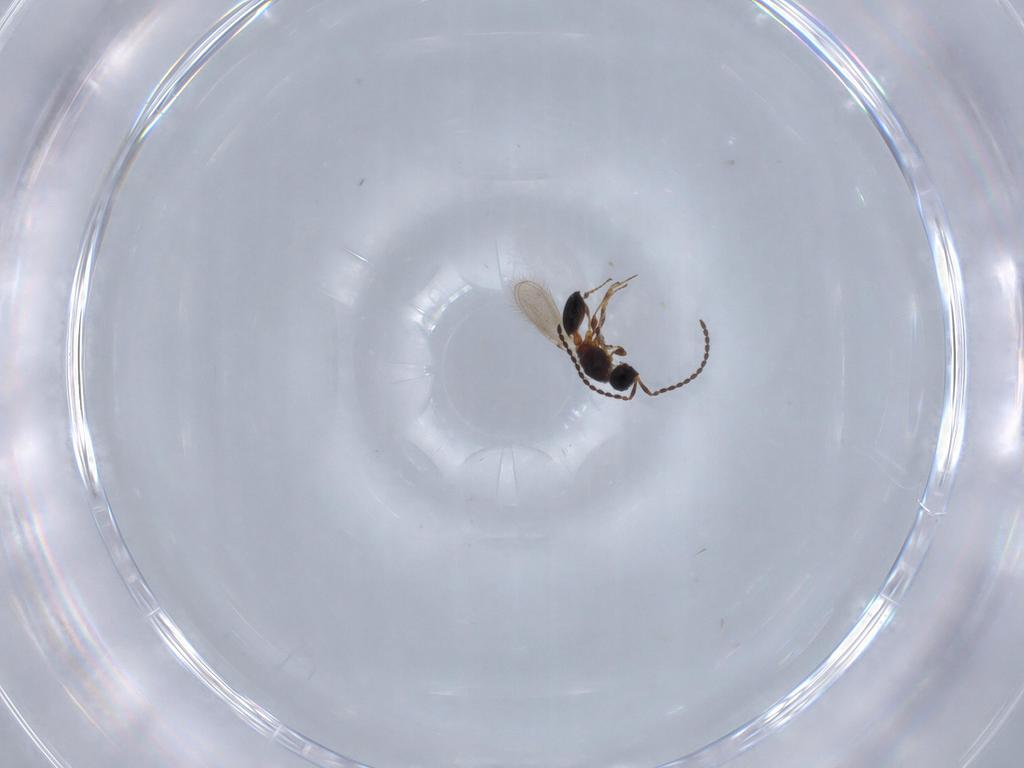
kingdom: Animalia
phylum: Arthropoda
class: Insecta
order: Hymenoptera
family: Diapriidae
